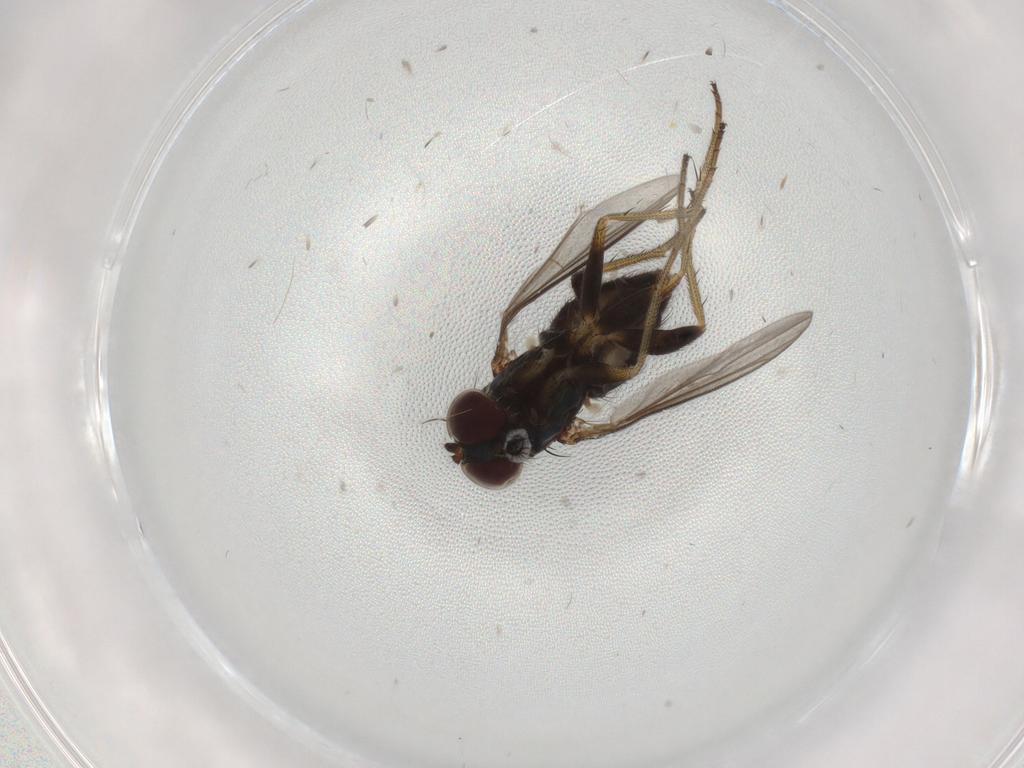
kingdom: Animalia
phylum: Arthropoda
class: Insecta
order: Diptera
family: Dolichopodidae
